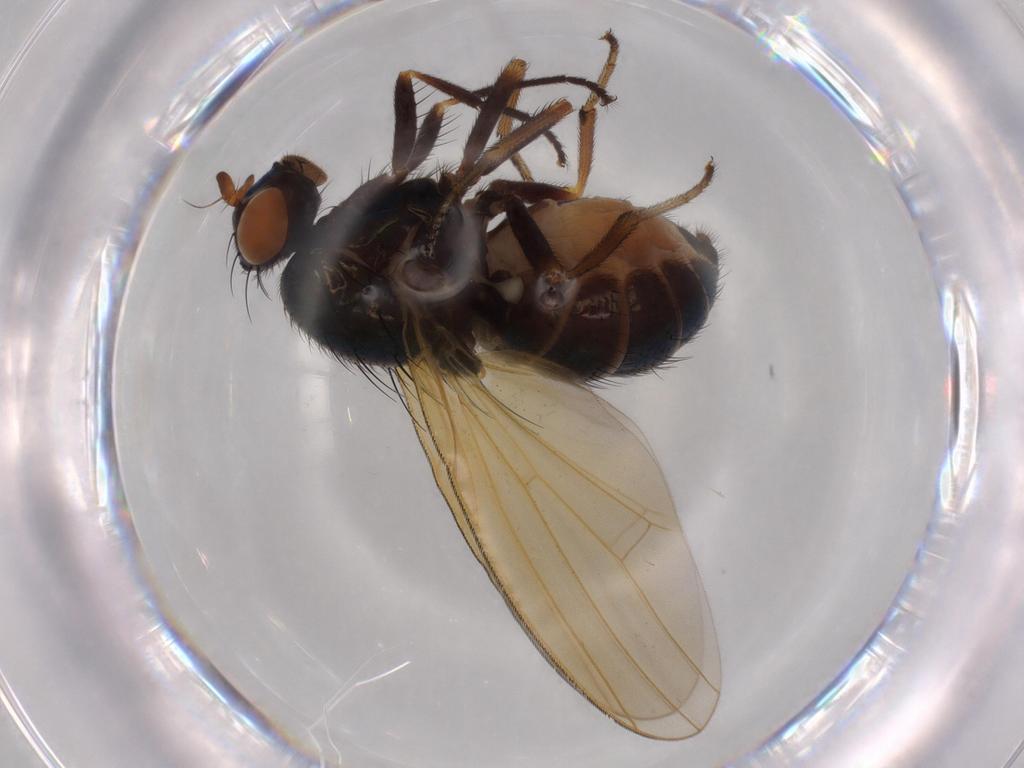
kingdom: Animalia
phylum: Arthropoda
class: Insecta
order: Diptera
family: Lauxaniidae
